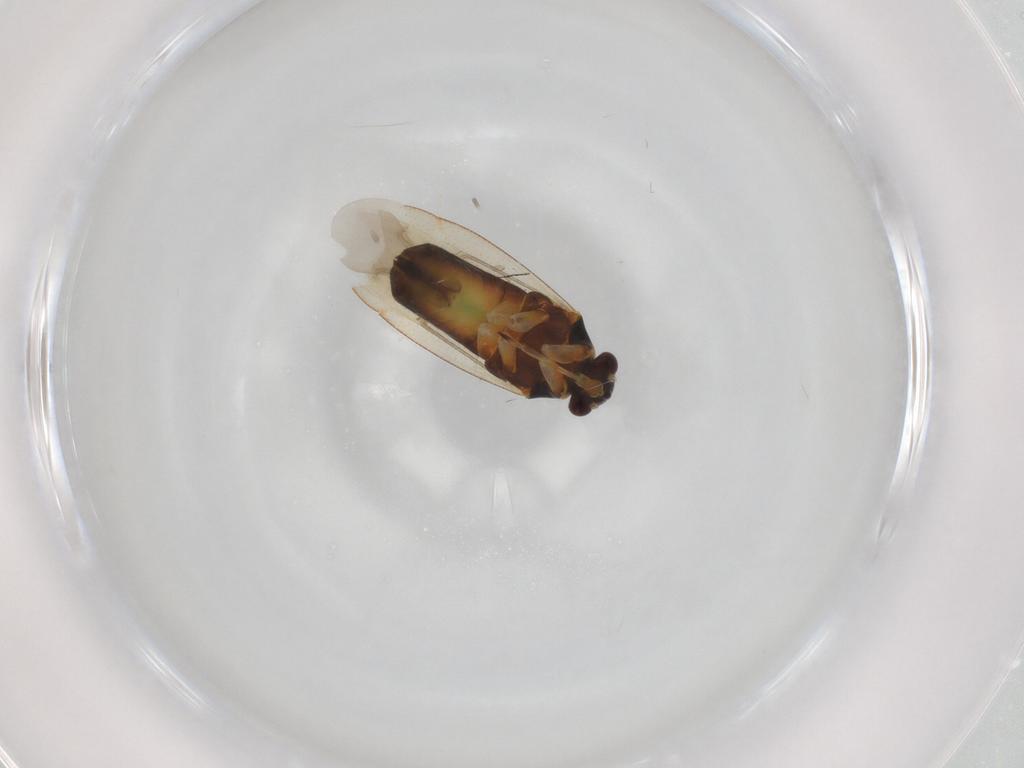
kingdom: Animalia
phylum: Arthropoda
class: Insecta
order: Hemiptera
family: Miridae
